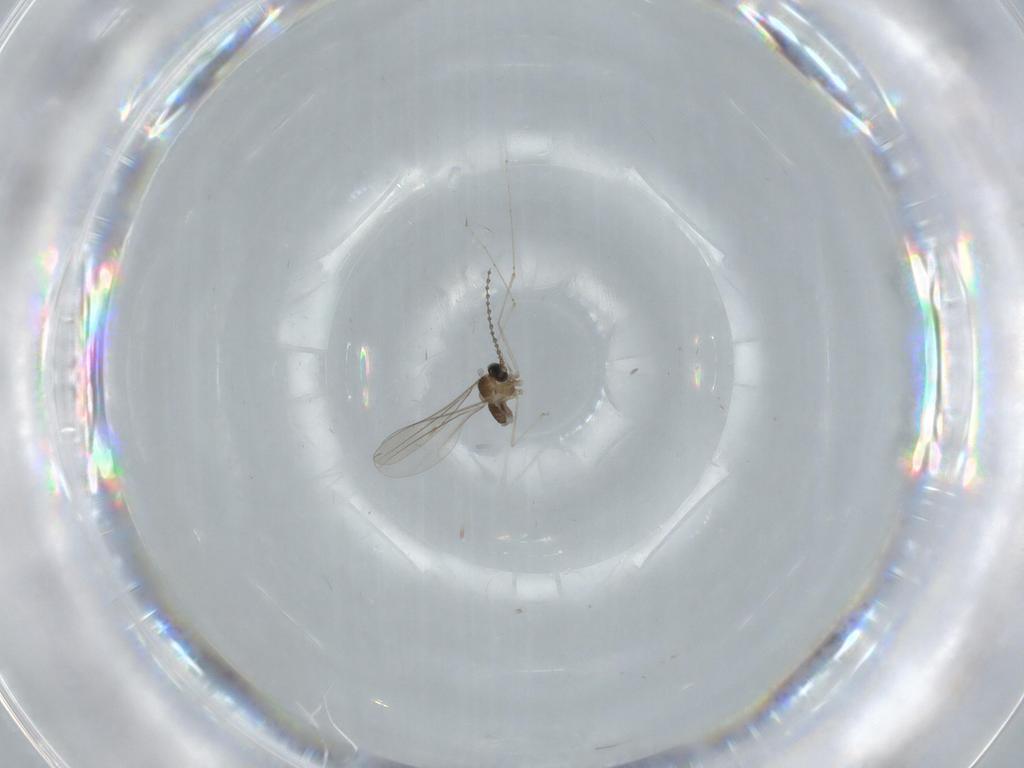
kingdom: Animalia
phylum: Arthropoda
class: Insecta
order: Diptera
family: Cecidomyiidae
